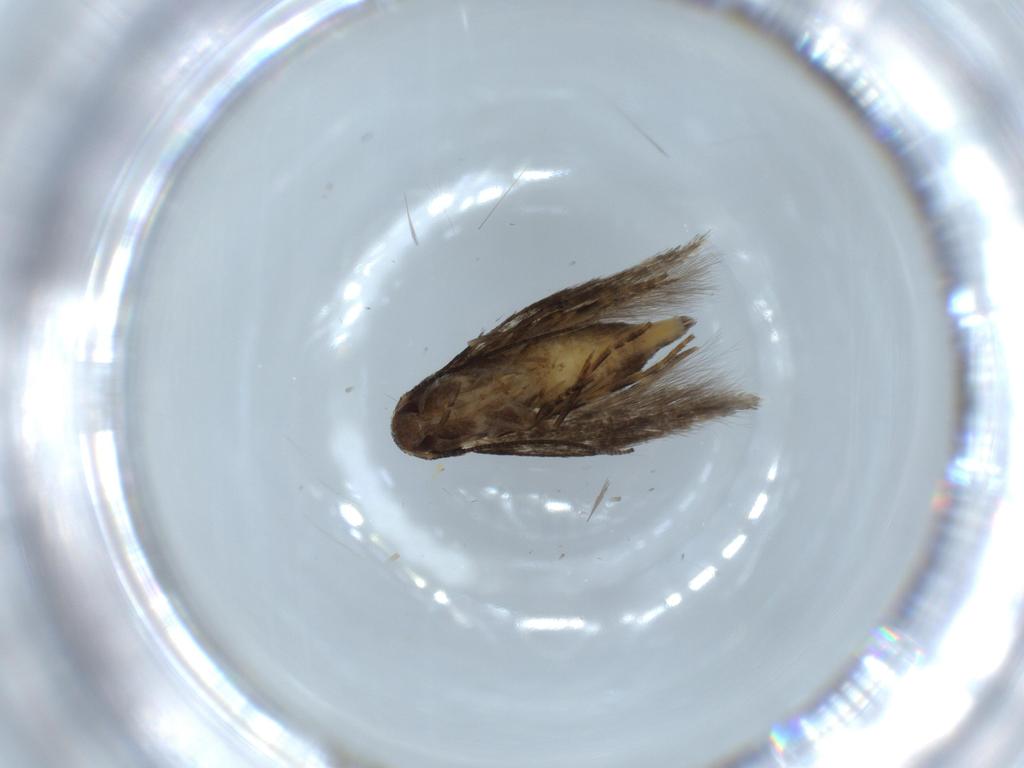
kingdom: Animalia
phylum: Arthropoda
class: Insecta
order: Lepidoptera
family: Elachistidae
